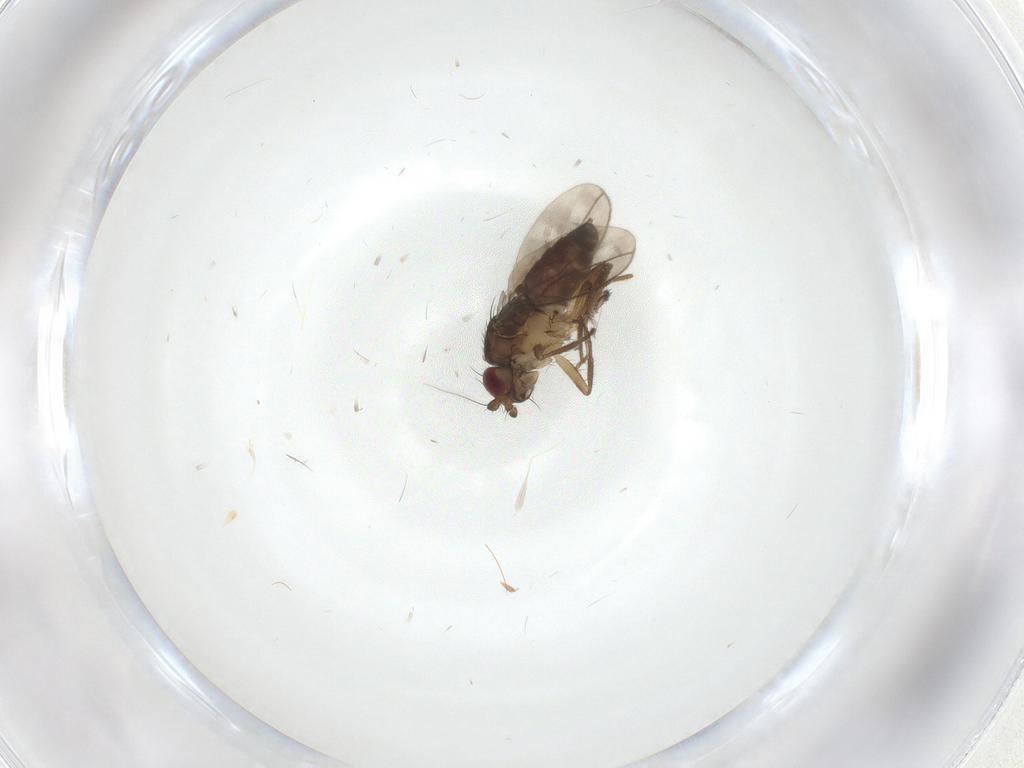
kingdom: Animalia
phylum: Arthropoda
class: Insecta
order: Diptera
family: Sphaeroceridae
